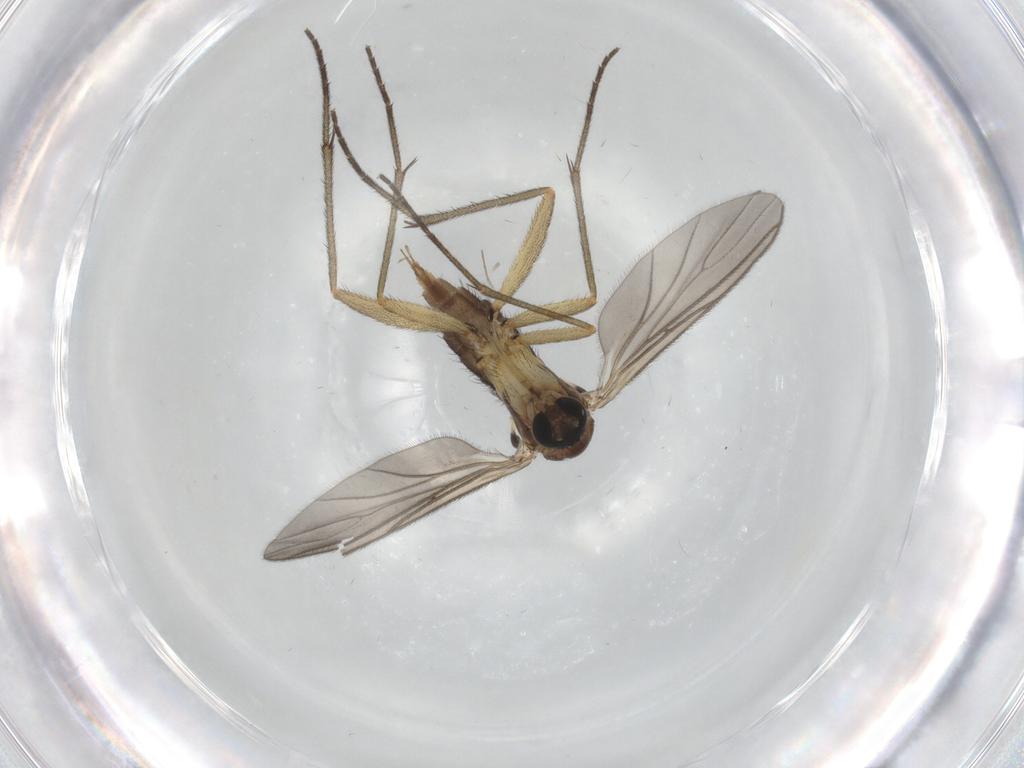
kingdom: Animalia
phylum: Arthropoda
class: Insecta
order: Diptera
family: Sciaridae
